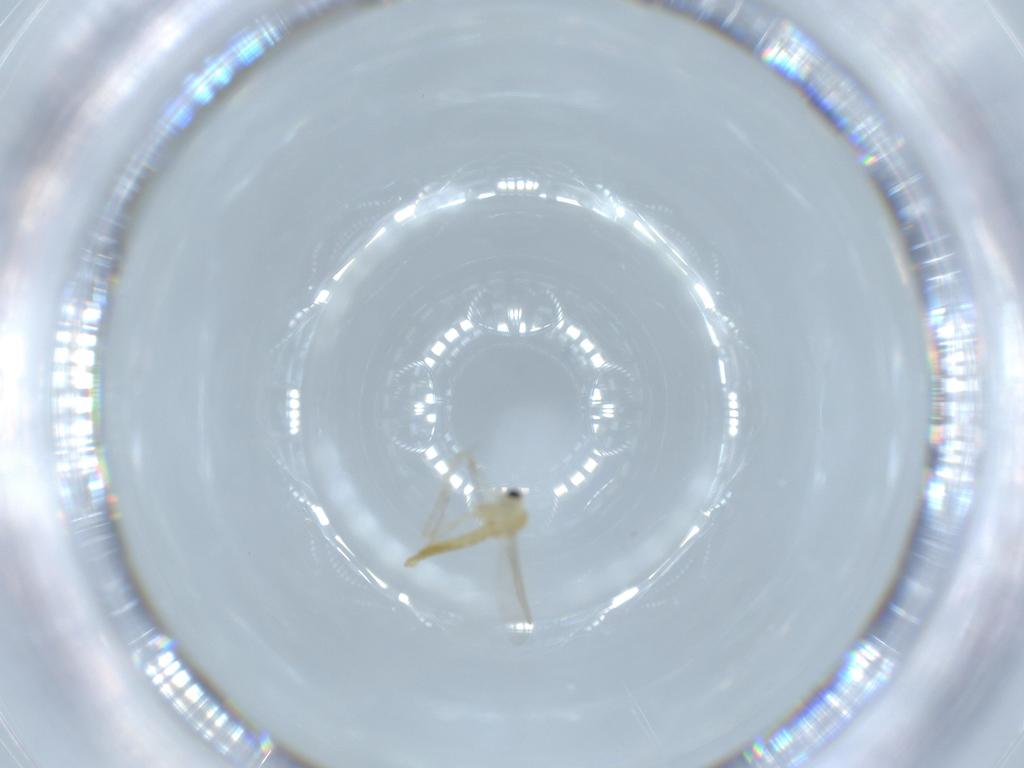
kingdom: Animalia
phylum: Arthropoda
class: Insecta
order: Diptera
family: Chironomidae
